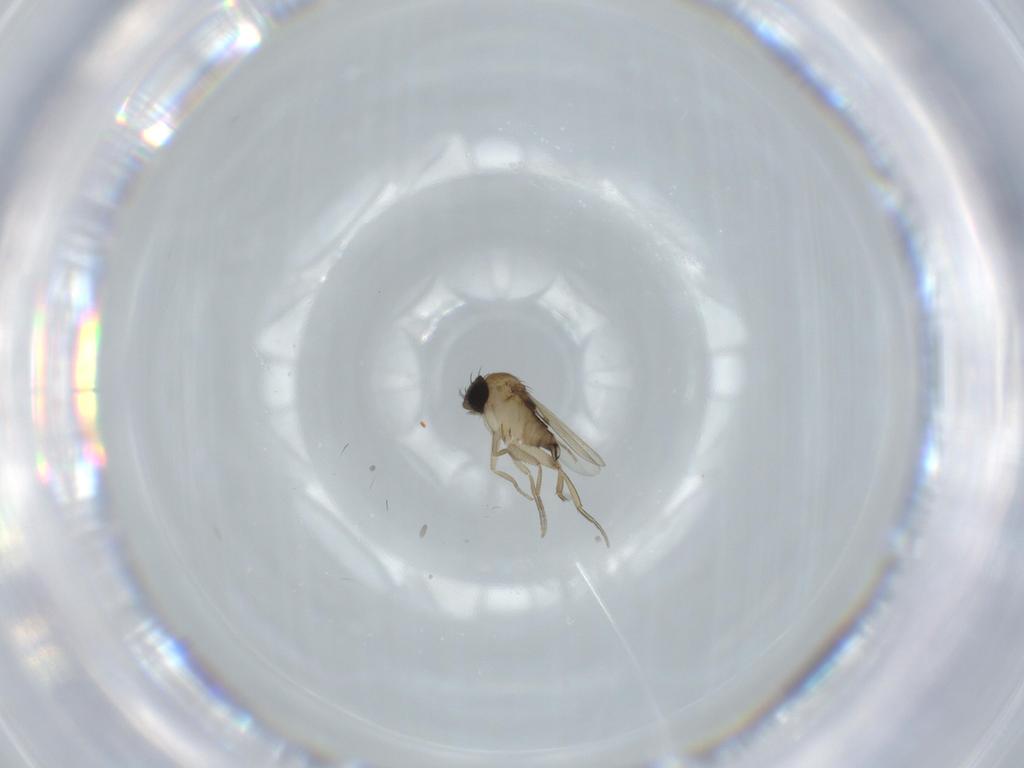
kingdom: Animalia
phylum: Arthropoda
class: Insecta
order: Diptera
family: Phoridae
